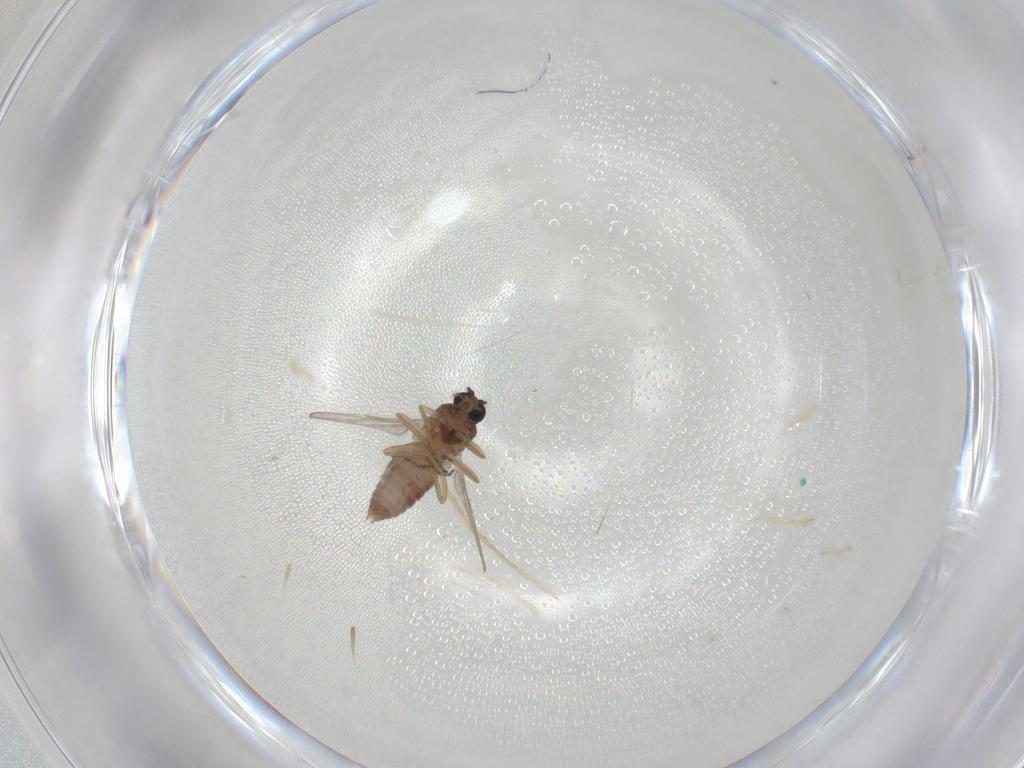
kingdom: Animalia
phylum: Arthropoda
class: Insecta
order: Diptera
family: Ceratopogonidae
